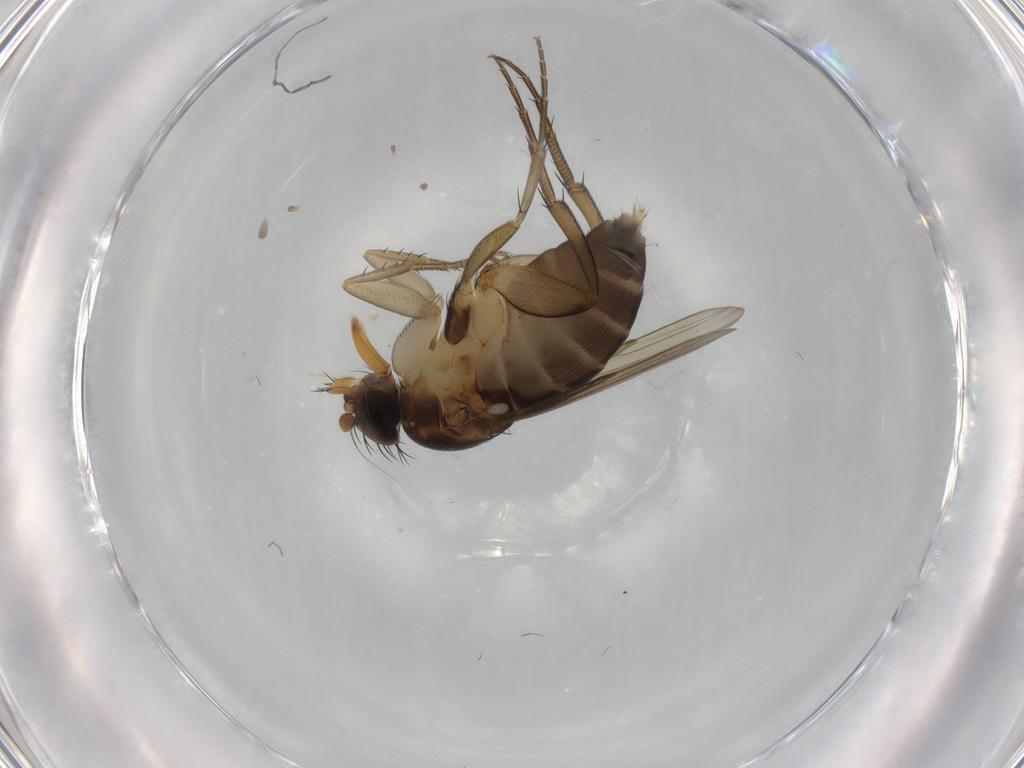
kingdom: Animalia
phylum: Arthropoda
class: Insecta
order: Diptera
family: Phoridae
